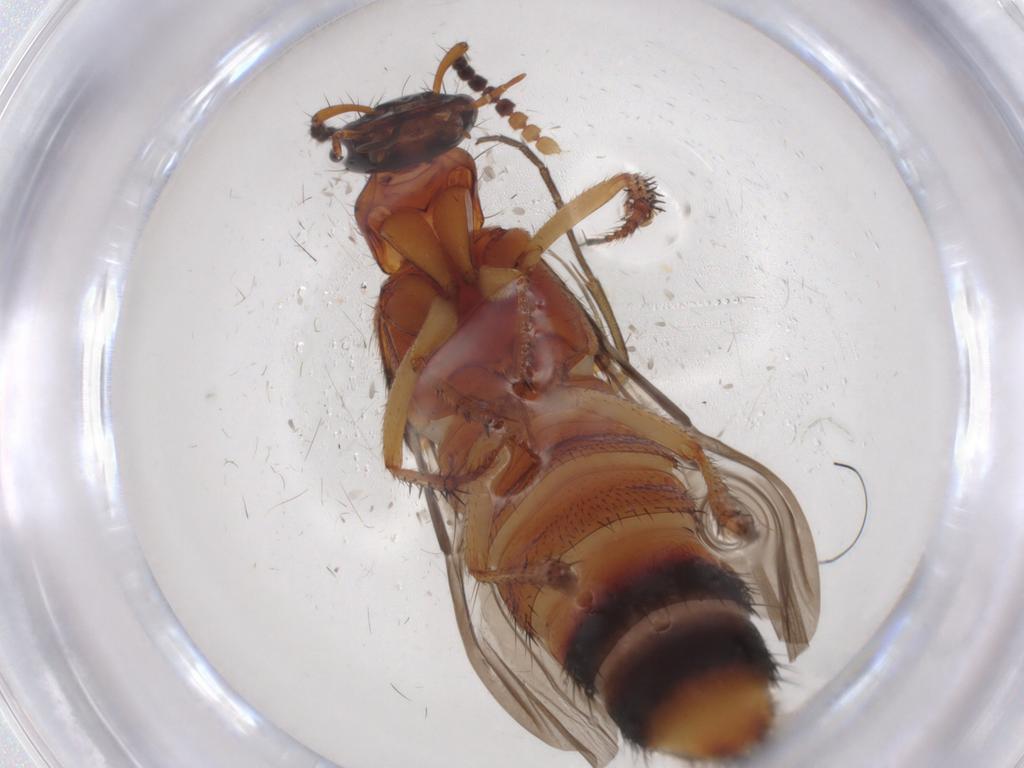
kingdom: Animalia
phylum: Arthropoda
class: Insecta
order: Coleoptera
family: Staphylinidae
